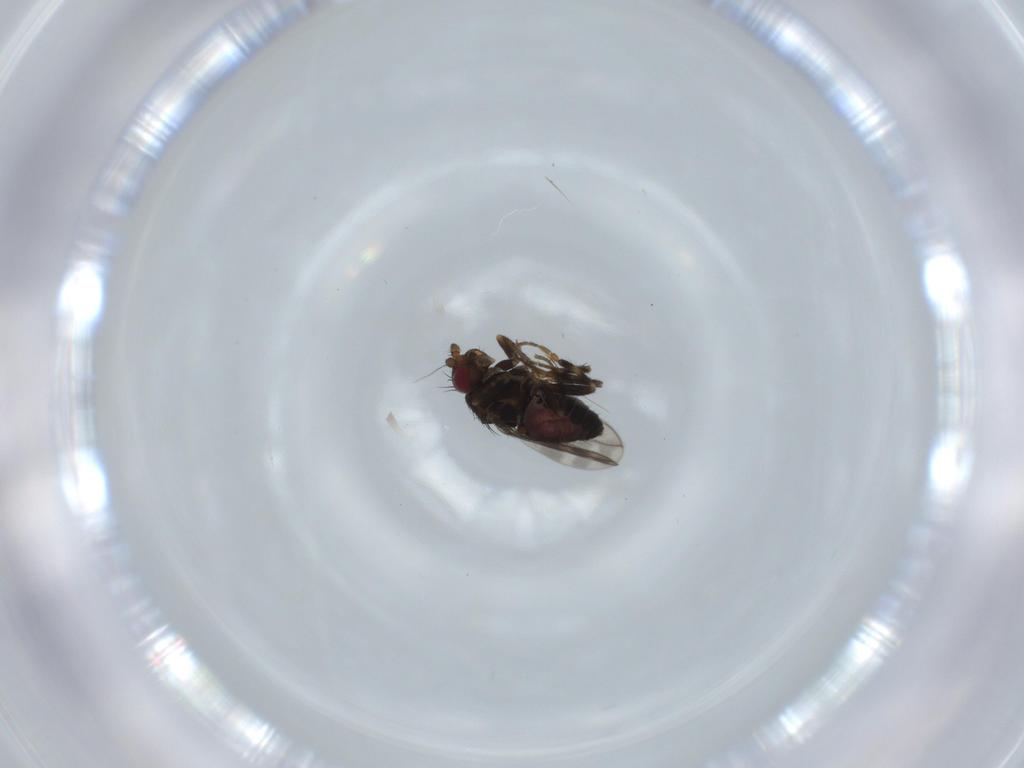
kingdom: Animalia
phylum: Arthropoda
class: Insecta
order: Diptera
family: Sphaeroceridae
